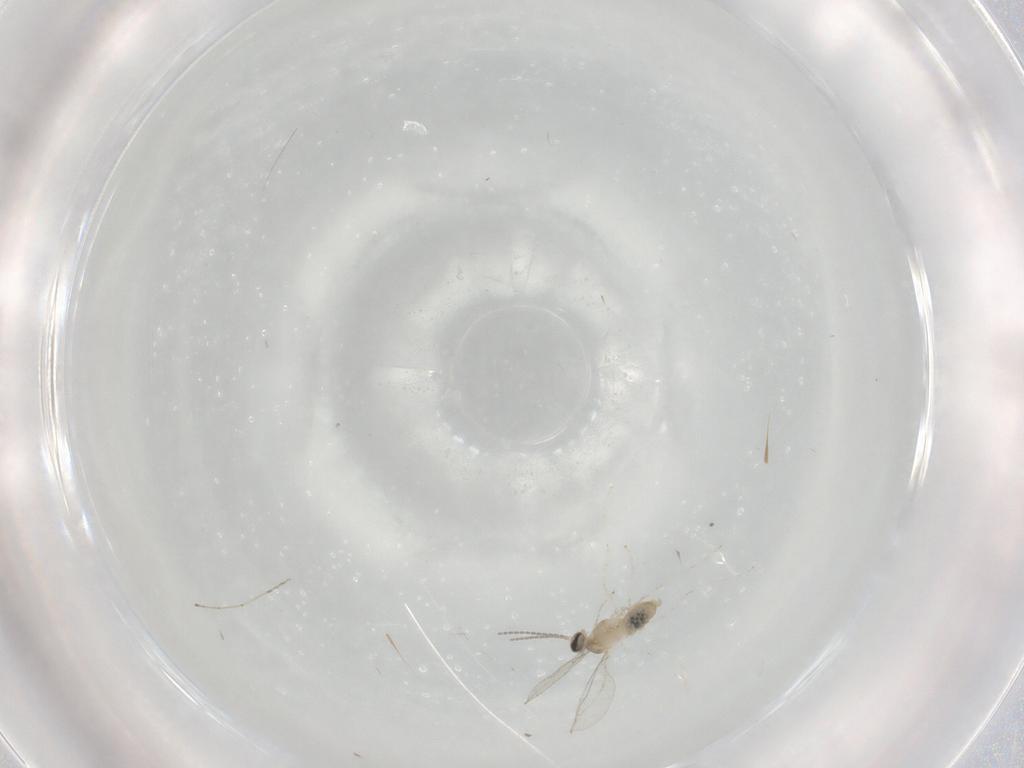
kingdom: Animalia
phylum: Arthropoda
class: Insecta
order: Diptera
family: Cecidomyiidae
